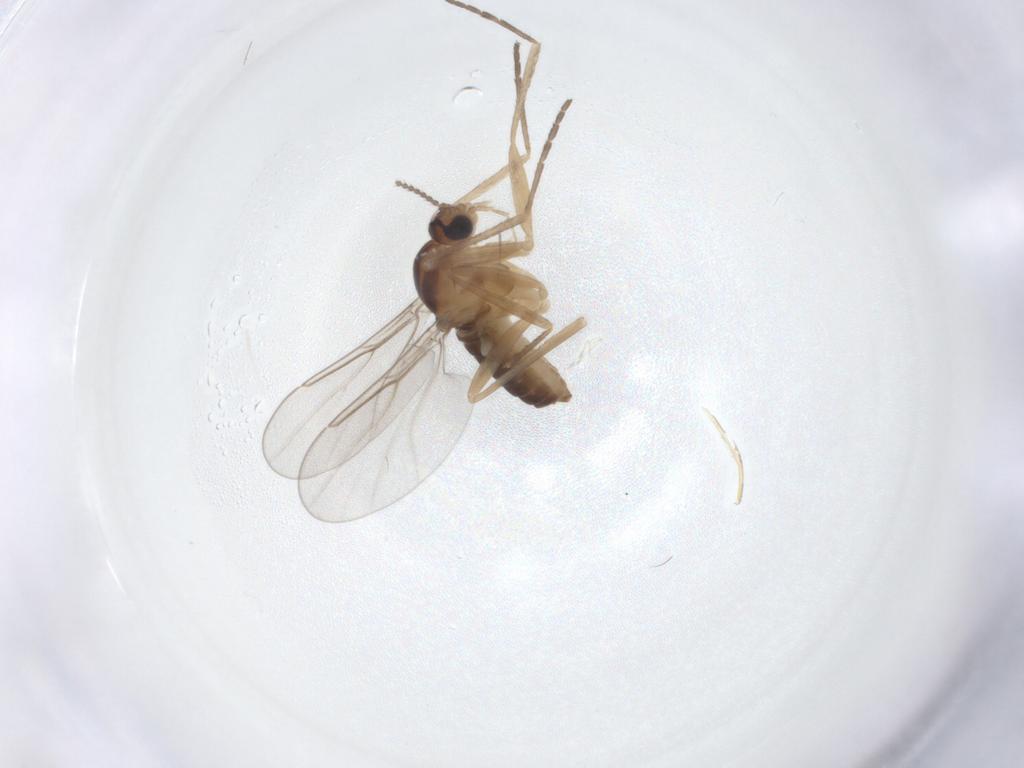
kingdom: Animalia
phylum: Arthropoda
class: Insecta
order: Diptera
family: Cecidomyiidae
